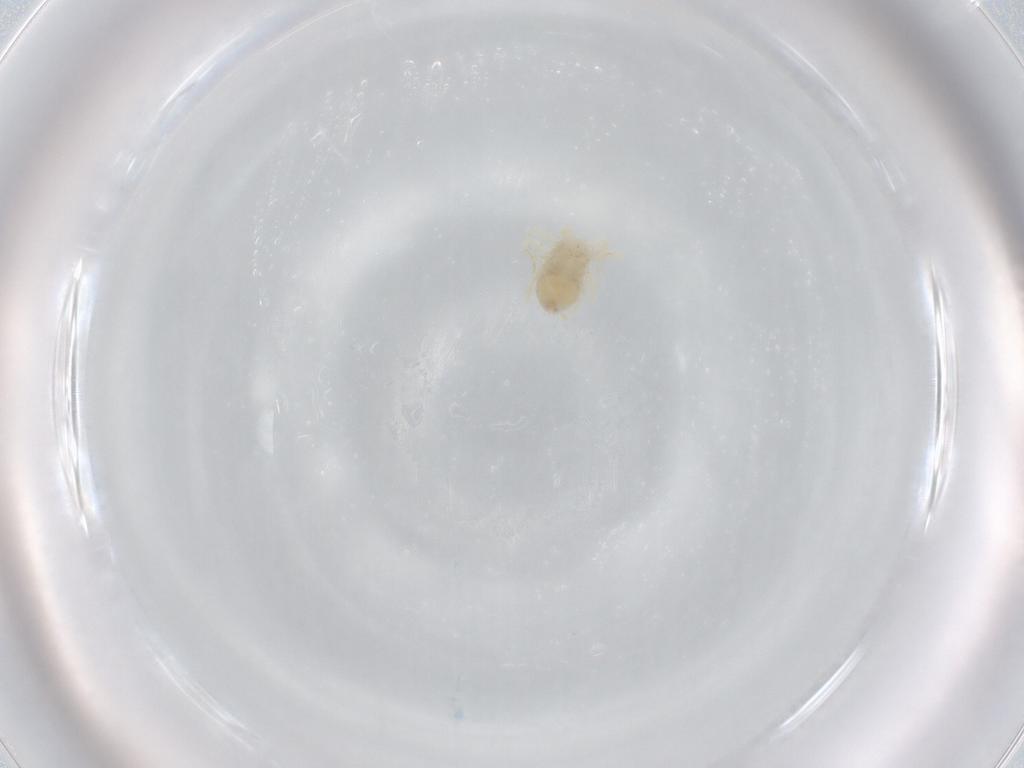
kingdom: Animalia
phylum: Arthropoda
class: Arachnida
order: Trombidiformes
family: Anystidae
